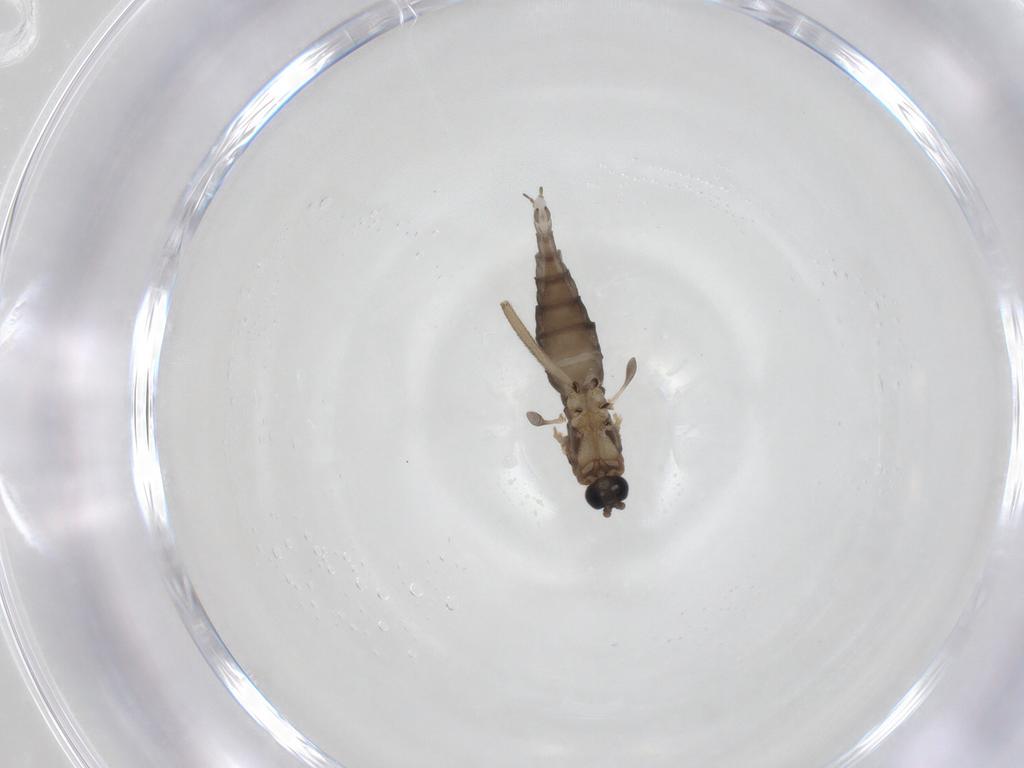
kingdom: Animalia
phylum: Arthropoda
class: Insecta
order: Diptera
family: Sciaridae
